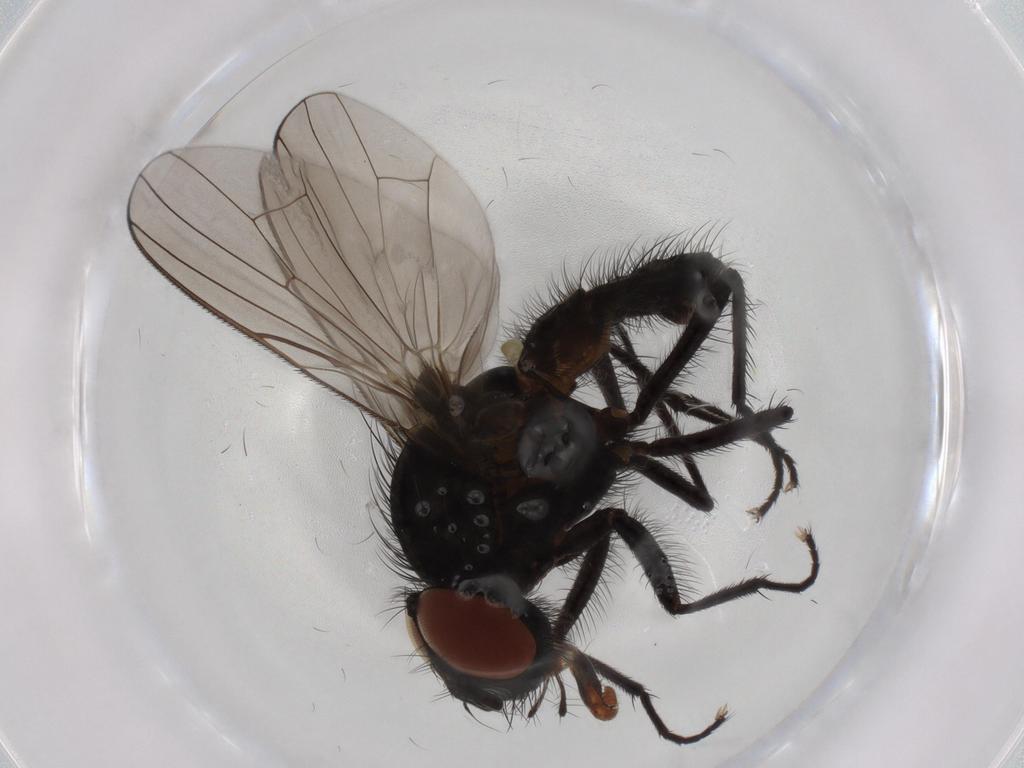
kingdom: Animalia
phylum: Arthropoda
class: Insecta
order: Diptera
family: Anthomyiidae
